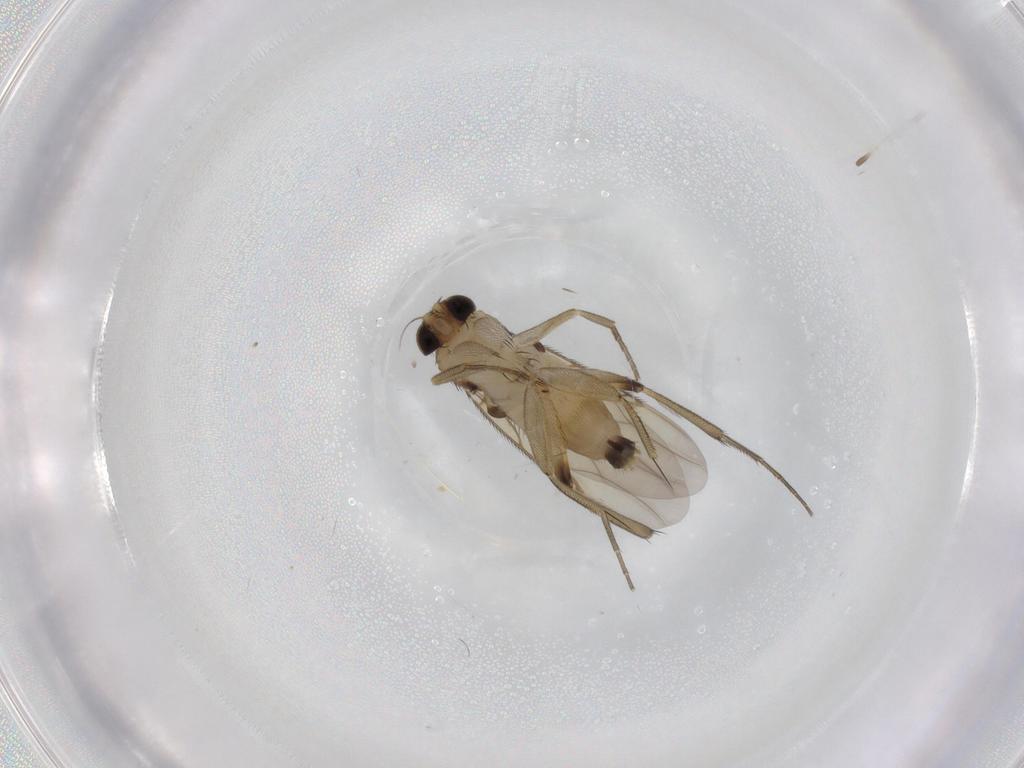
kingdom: Animalia
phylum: Arthropoda
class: Insecta
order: Diptera
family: Phoridae
